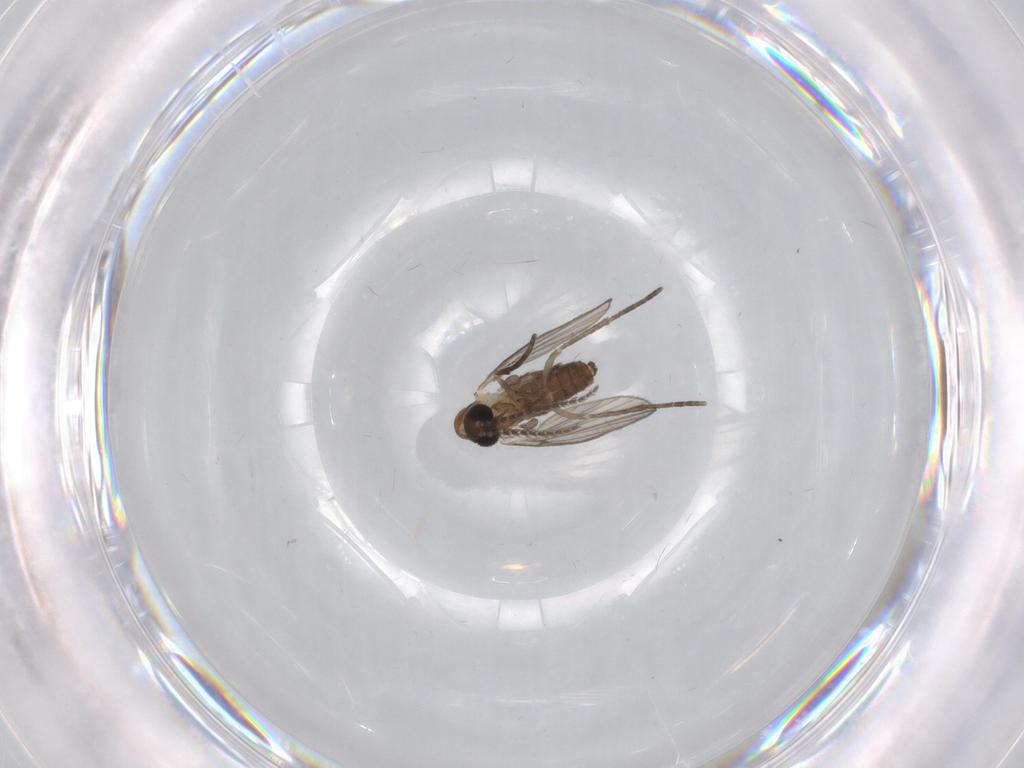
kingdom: Animalia
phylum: Arthropoda
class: Insecta
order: Diptera
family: Psychodidae
